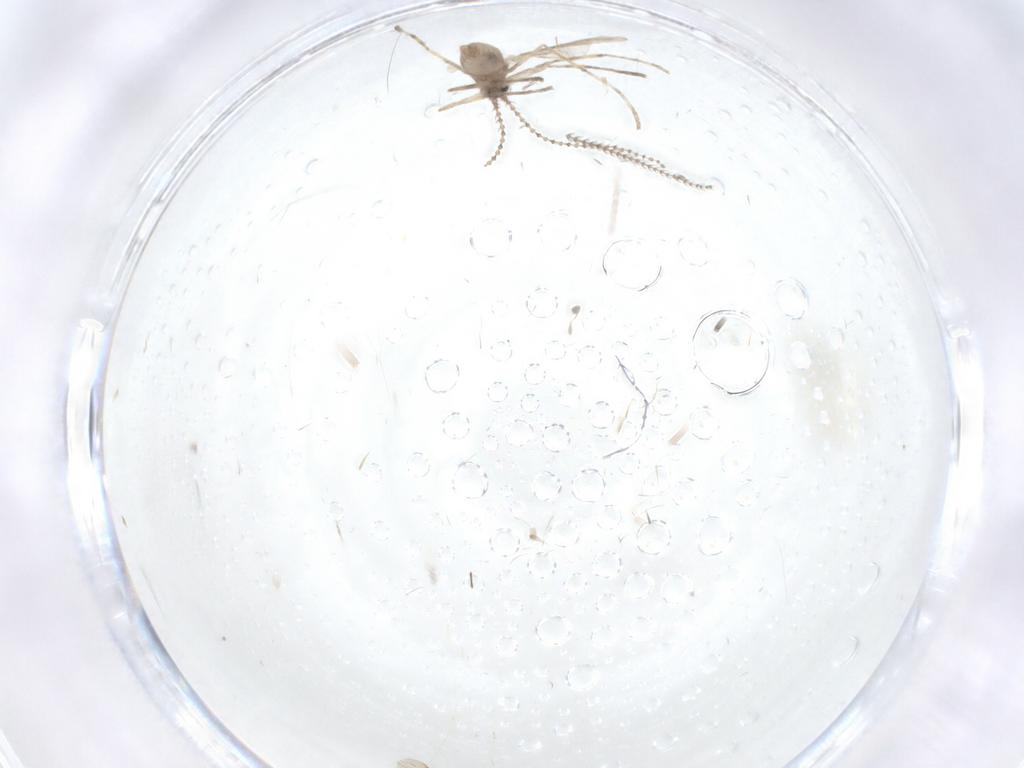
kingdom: Animalia
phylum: Arthropoda
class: Insecta
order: Diptera
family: Cecidomyiidae
